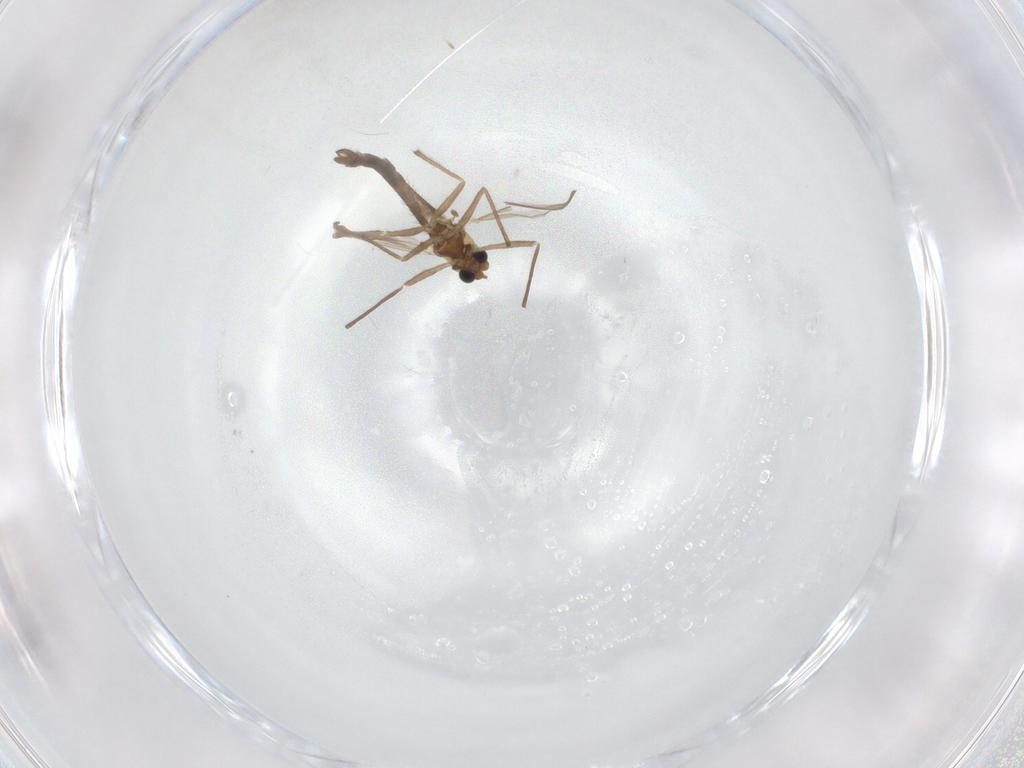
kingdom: Animalia
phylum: Arthropoda
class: Insecta
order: Diptera
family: Chironomidae
